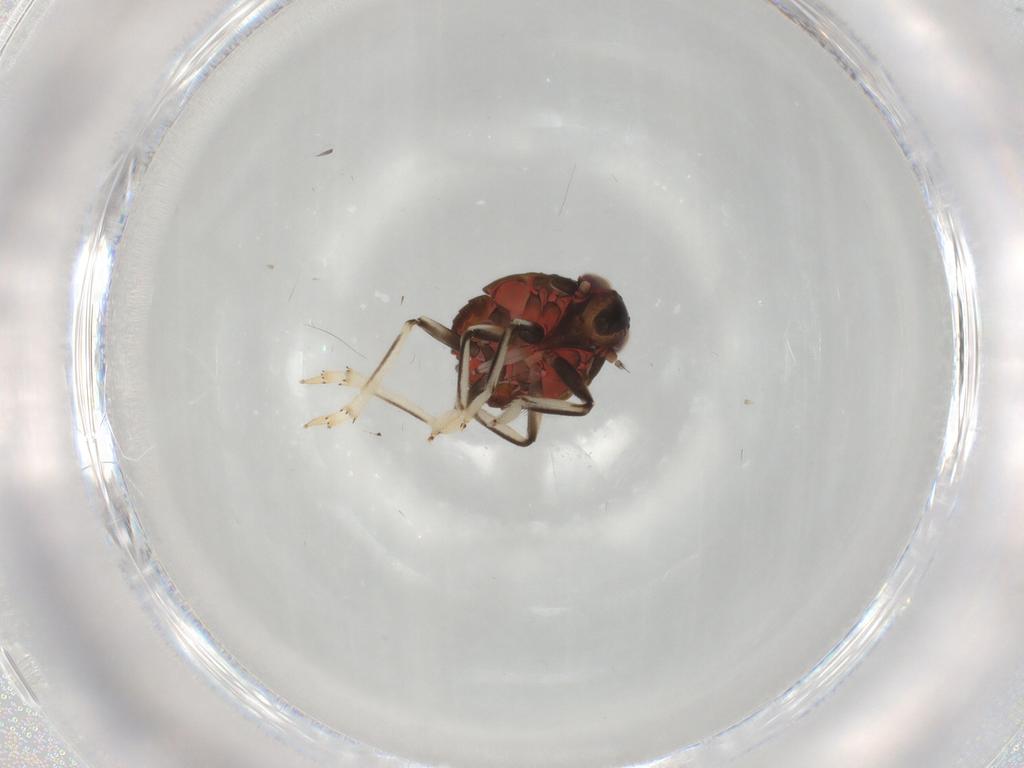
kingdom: Animalia
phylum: Arthropoda
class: Insecta
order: Hemiptera
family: Issidae
